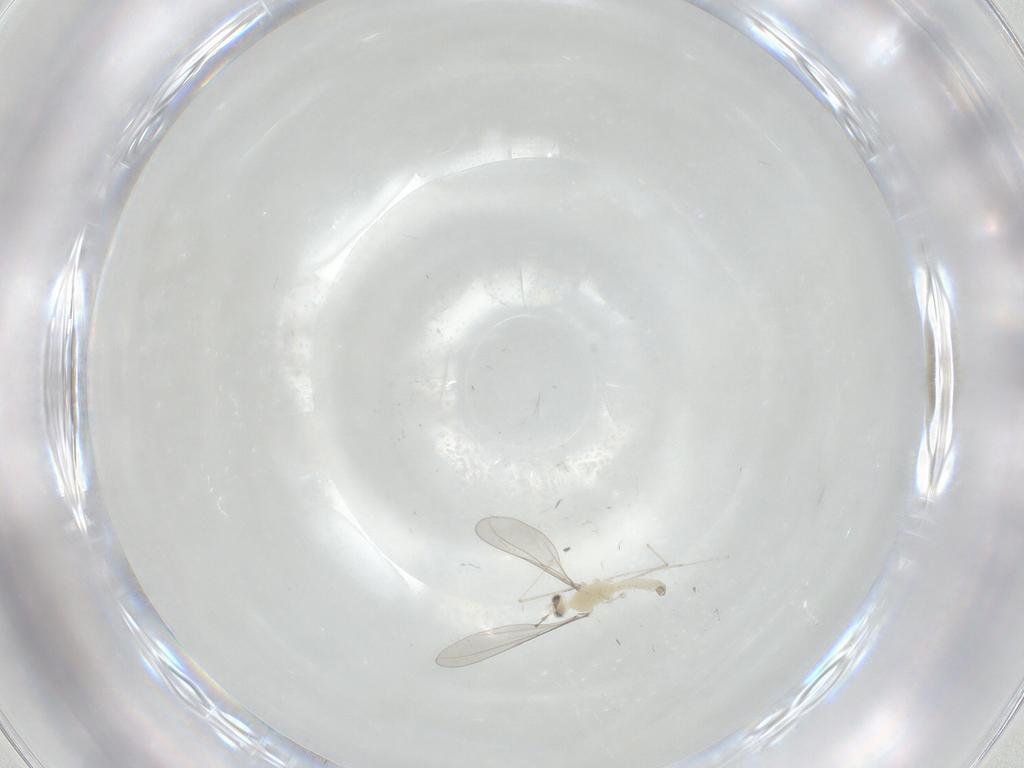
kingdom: Animalia
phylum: Arthropoda
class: Insecta
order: Diptera
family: Cecidomyiidae
